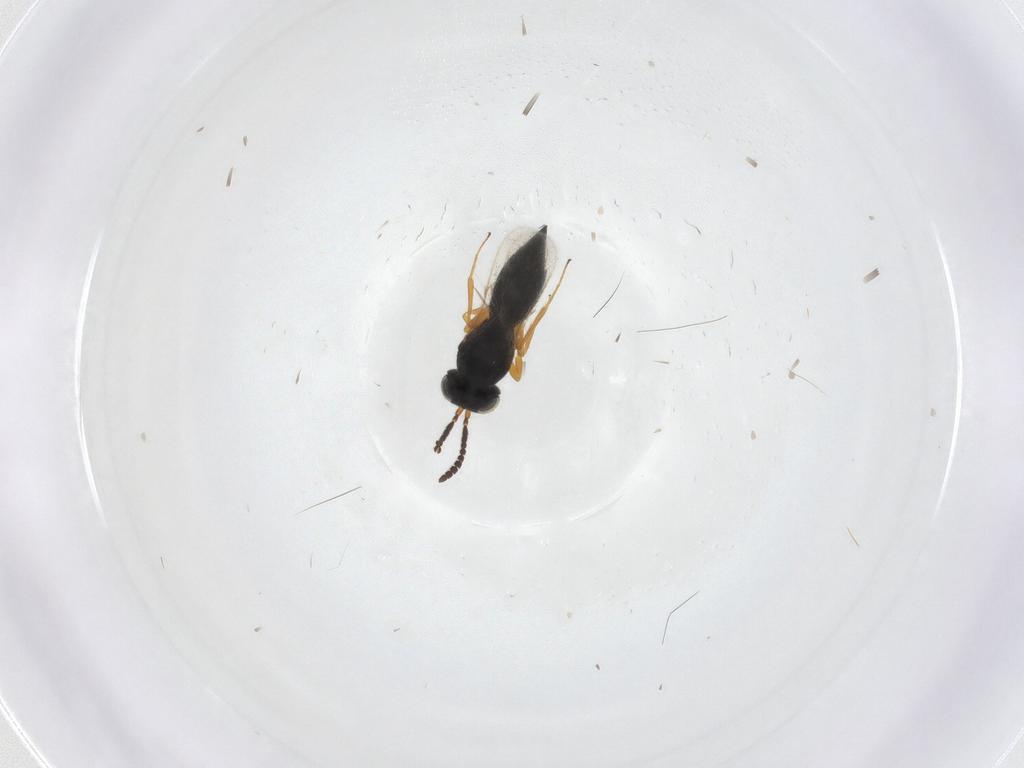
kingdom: Animalia
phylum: Arthropoda
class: Insecta
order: Hymenoptera
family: Scelionidae
